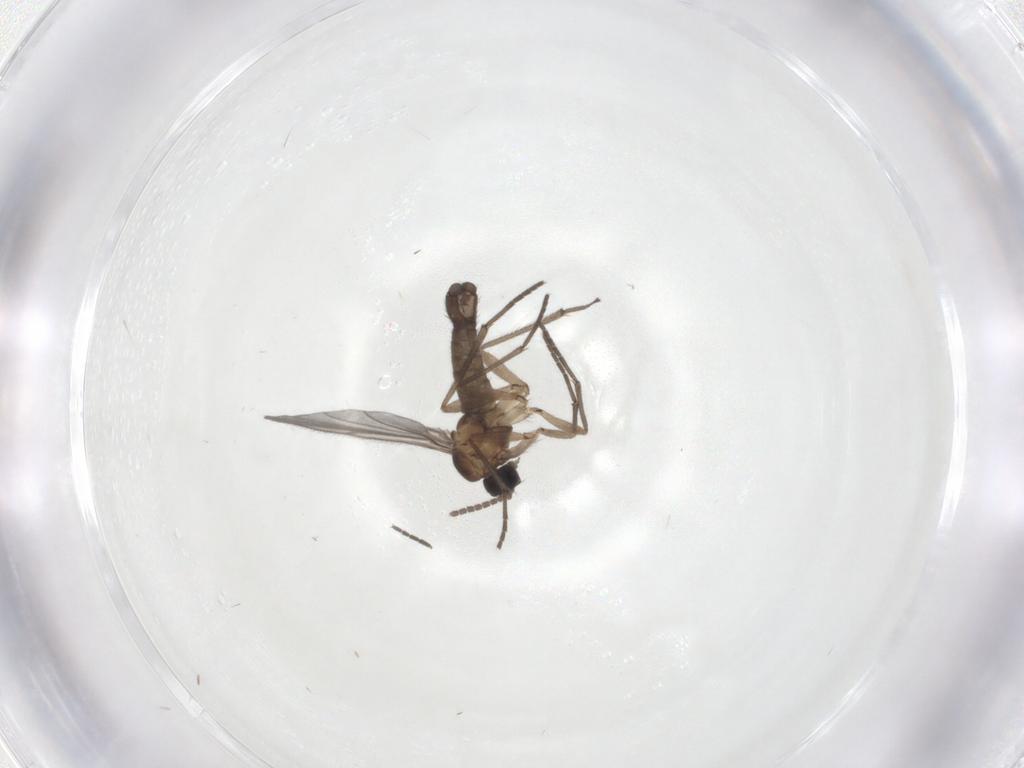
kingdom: Animalia
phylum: Arthropoda
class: Insecta
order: Diptera
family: Sciaridae
